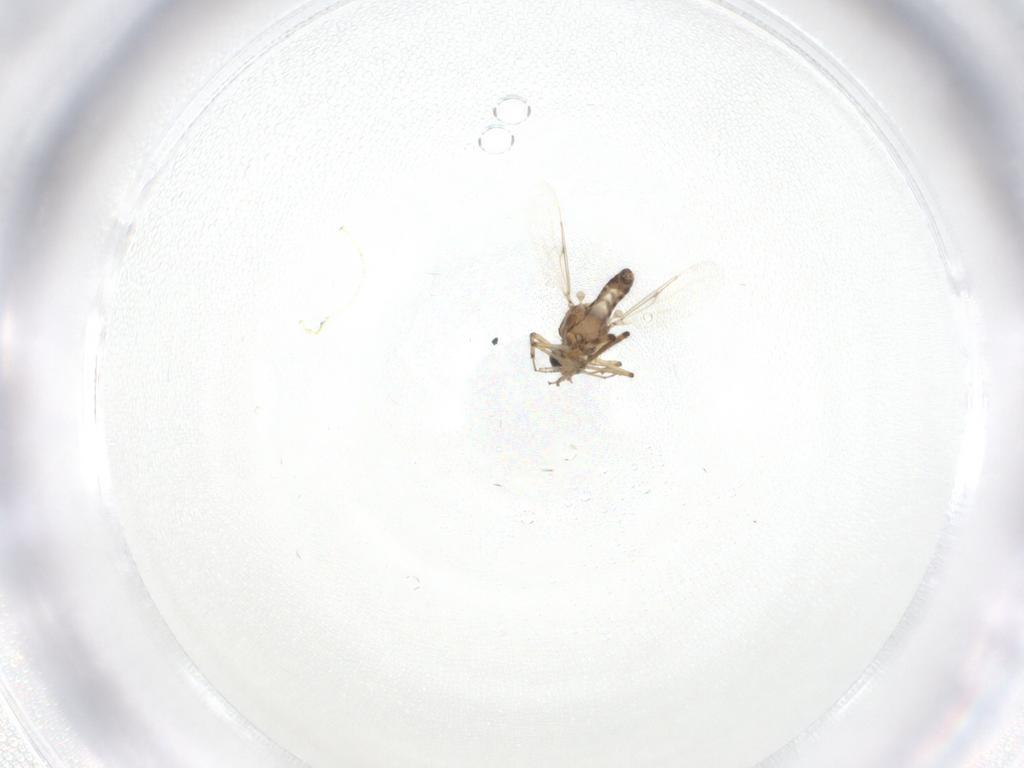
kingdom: Animalia
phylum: Arthropoda
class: Insecta
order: Diptera
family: Ceratopogonidae
